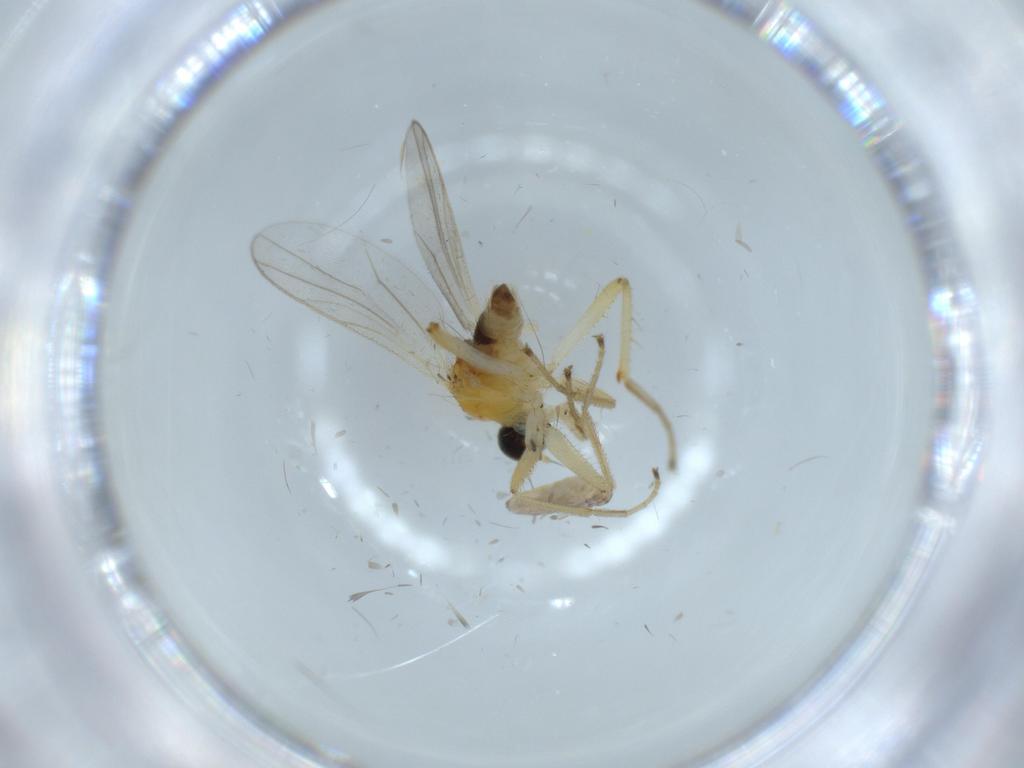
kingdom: Animalia
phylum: Arthropoda
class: Insecta
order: Diptera
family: Hybotidae
